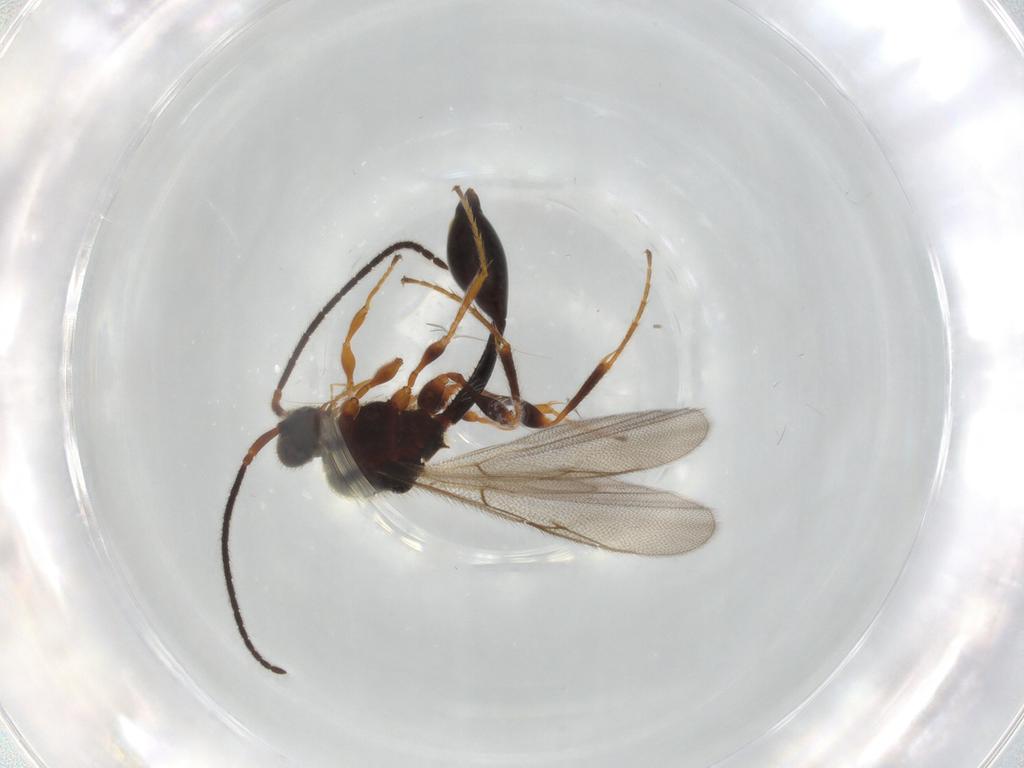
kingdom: Animalia
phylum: Arthropoda
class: Insecta
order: Hymenoptera
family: Diapriidae
